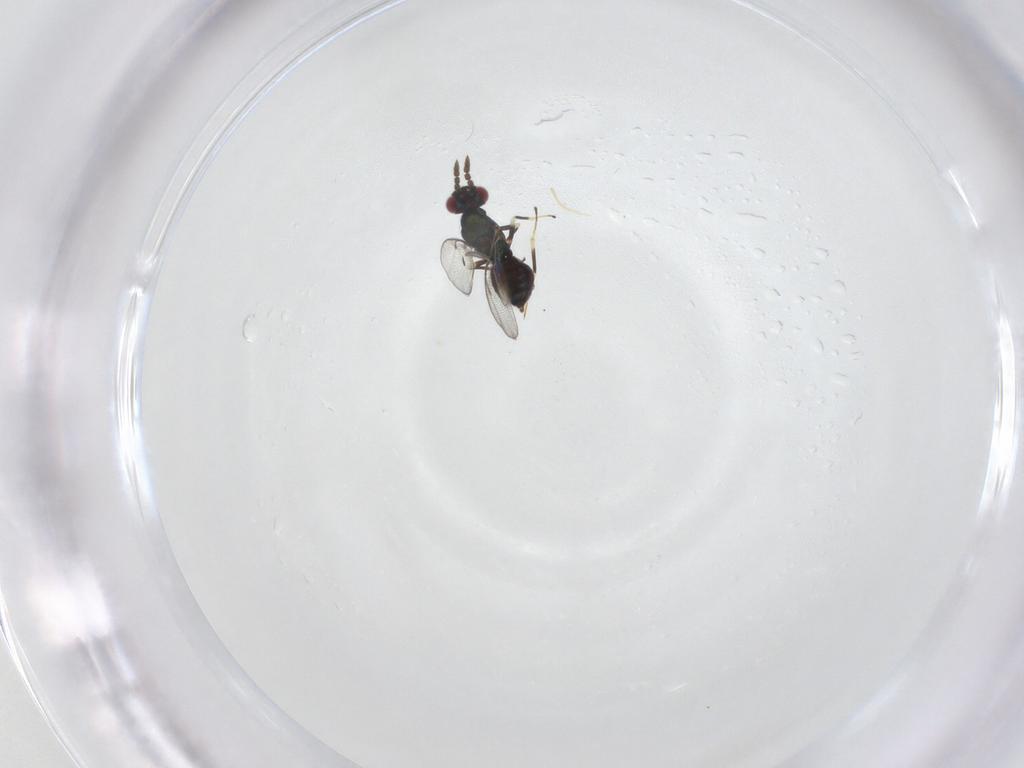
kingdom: Animalia
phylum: Arthropoda
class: Insecta
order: Hymenoptera
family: Eulophidae
